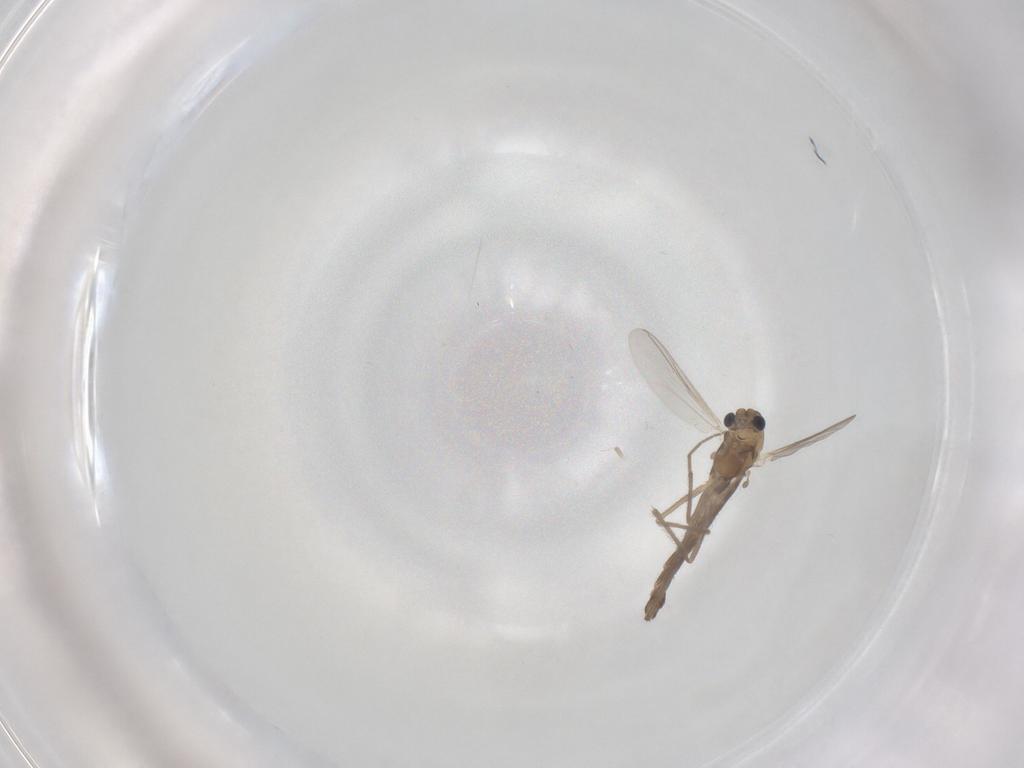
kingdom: Animalia
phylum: Arthropoda
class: Insecta
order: Diptera
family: Chironomidae
